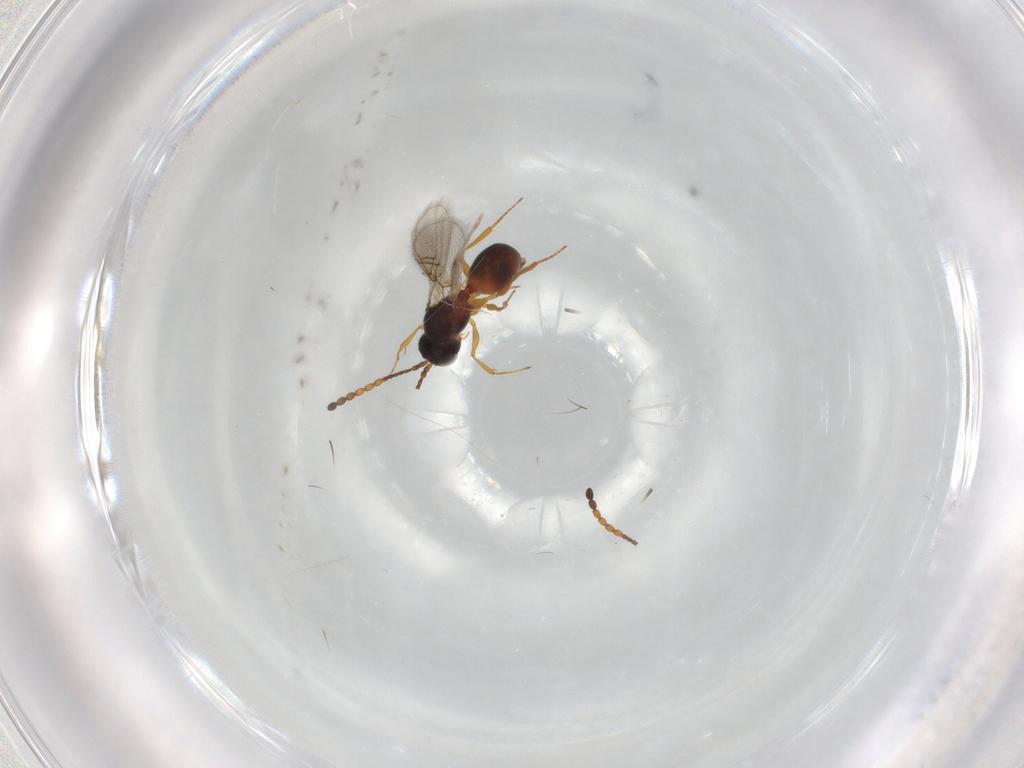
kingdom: Animalia
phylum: Arthropoda
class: Insecta
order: Hymenoptera
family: Figitidae
